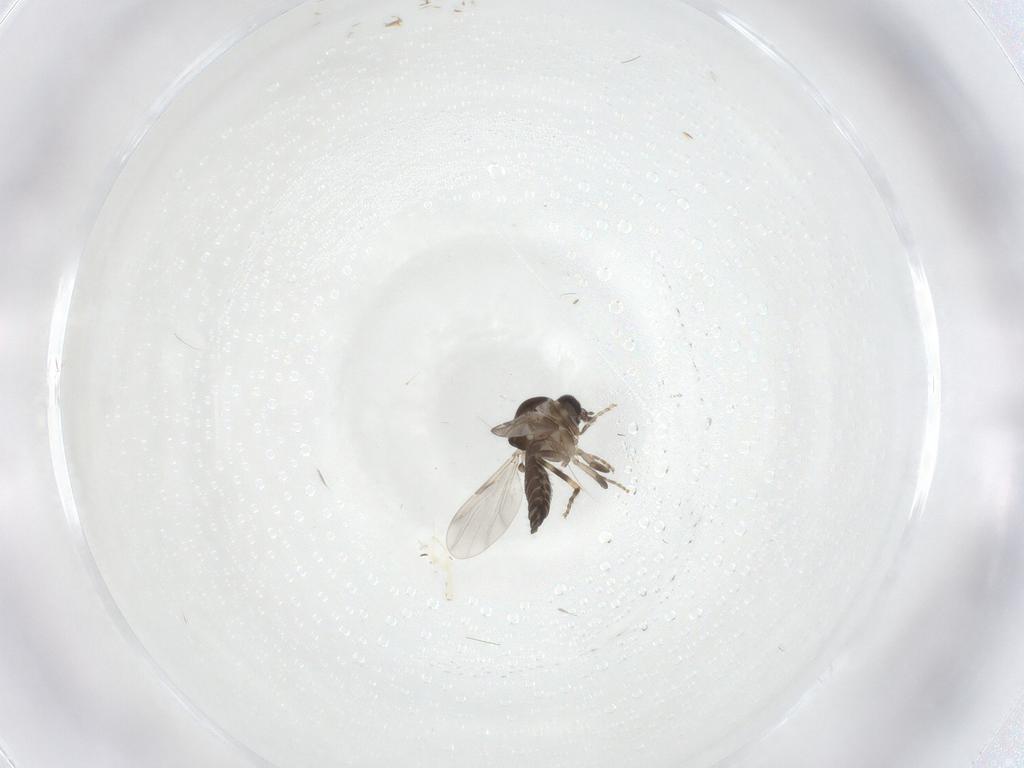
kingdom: Animalia
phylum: Arthropoda
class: Insecta
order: Diptera
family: Ceratopogonidae
